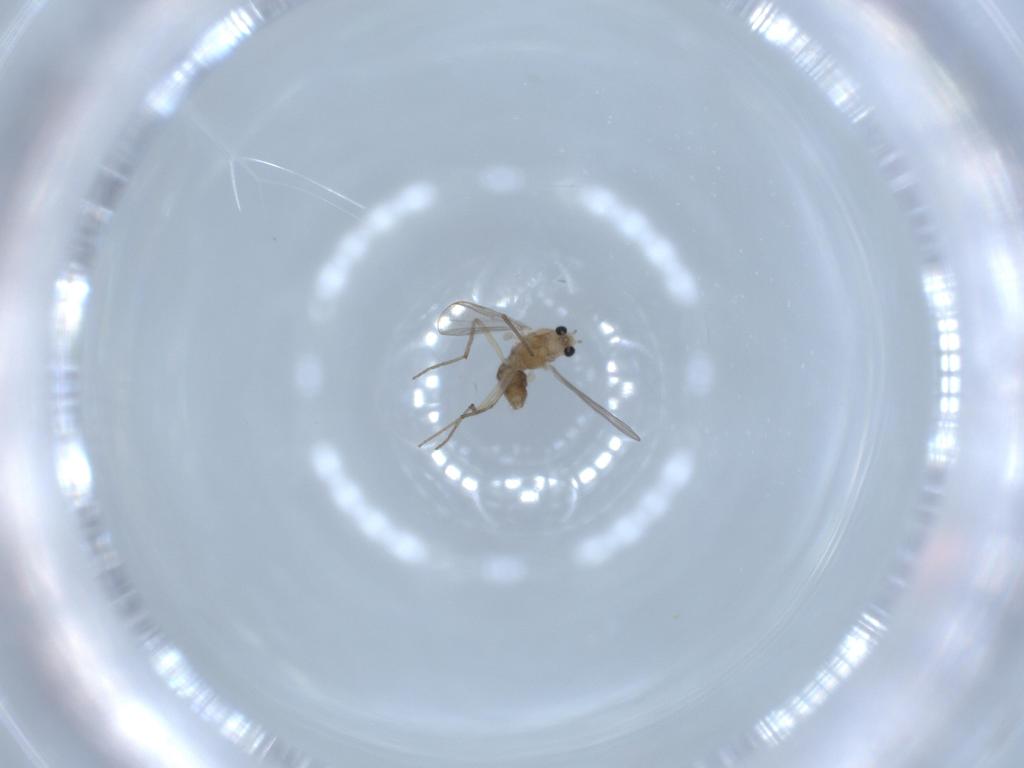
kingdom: Animalia
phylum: Arthropoda
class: Insecta
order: Diptera
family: Chironomidae
